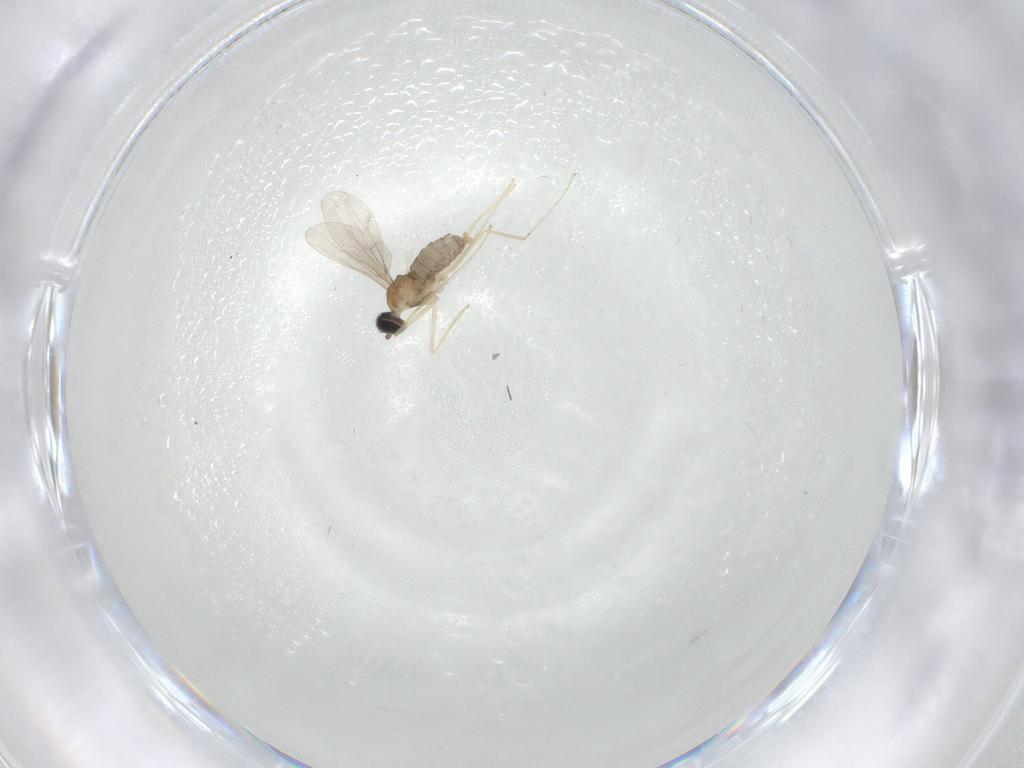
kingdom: Animalia
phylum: Arthropoda
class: Insecta
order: Diptera
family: Cecidomyiidae
